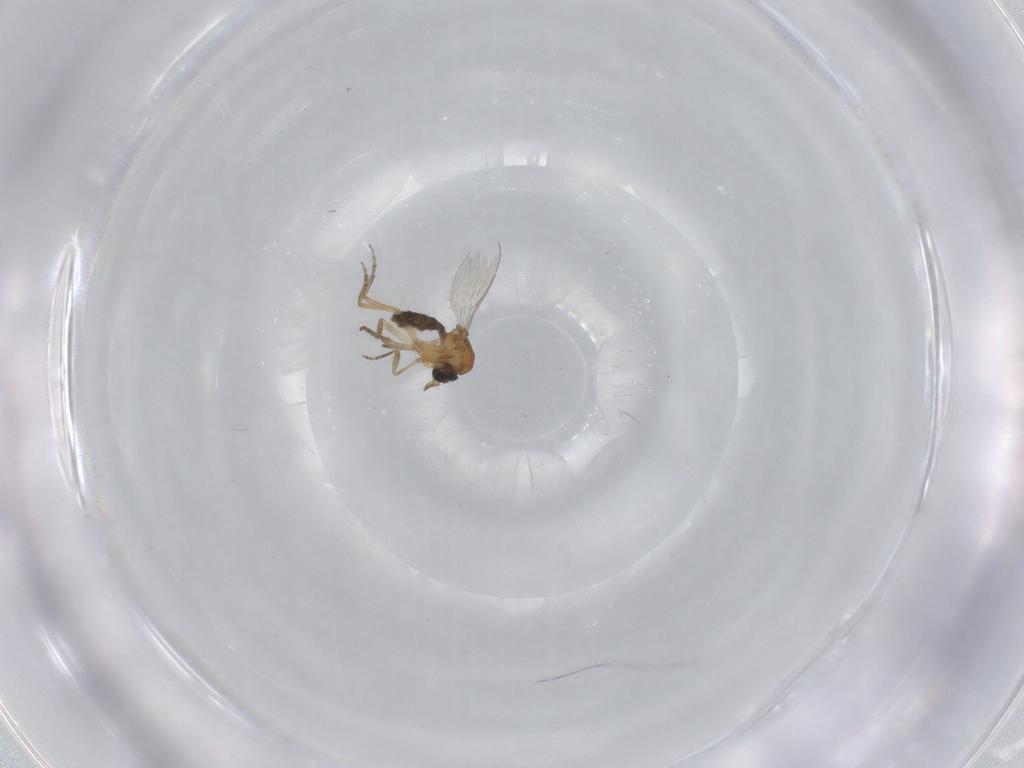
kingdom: Animalia
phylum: Arthropoda
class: Insecta
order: Diptera
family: Ceratopogonidae
